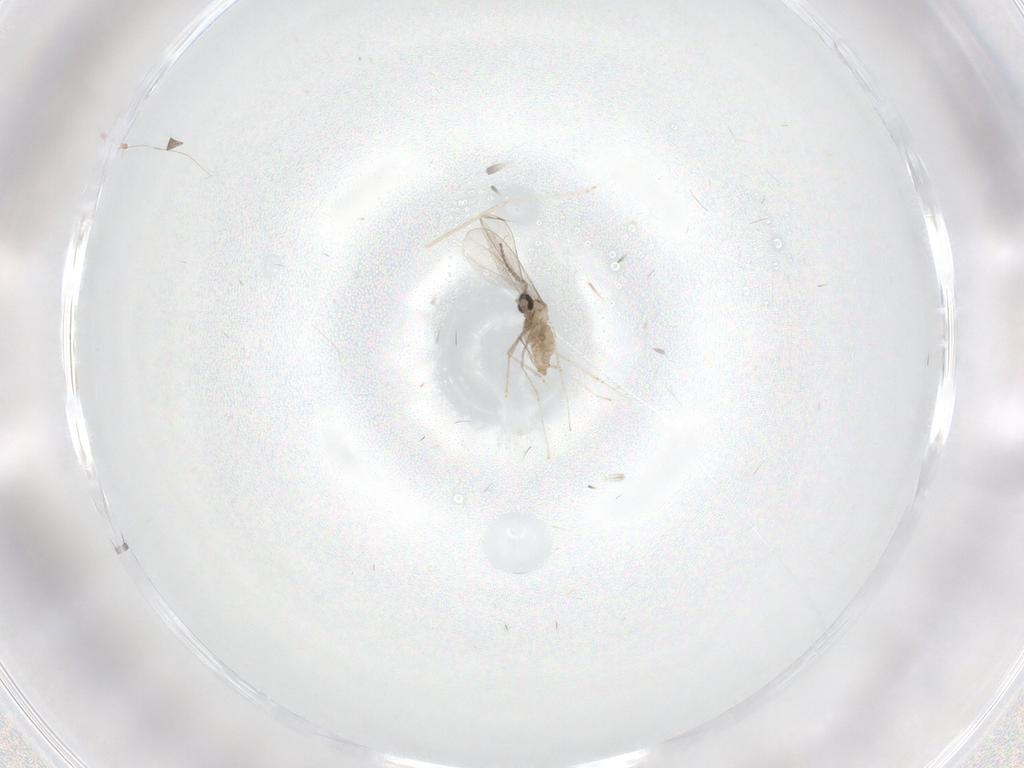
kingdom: Animalia
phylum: Arthropoda
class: Insecta
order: Diptera
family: Cecidomyiidae
